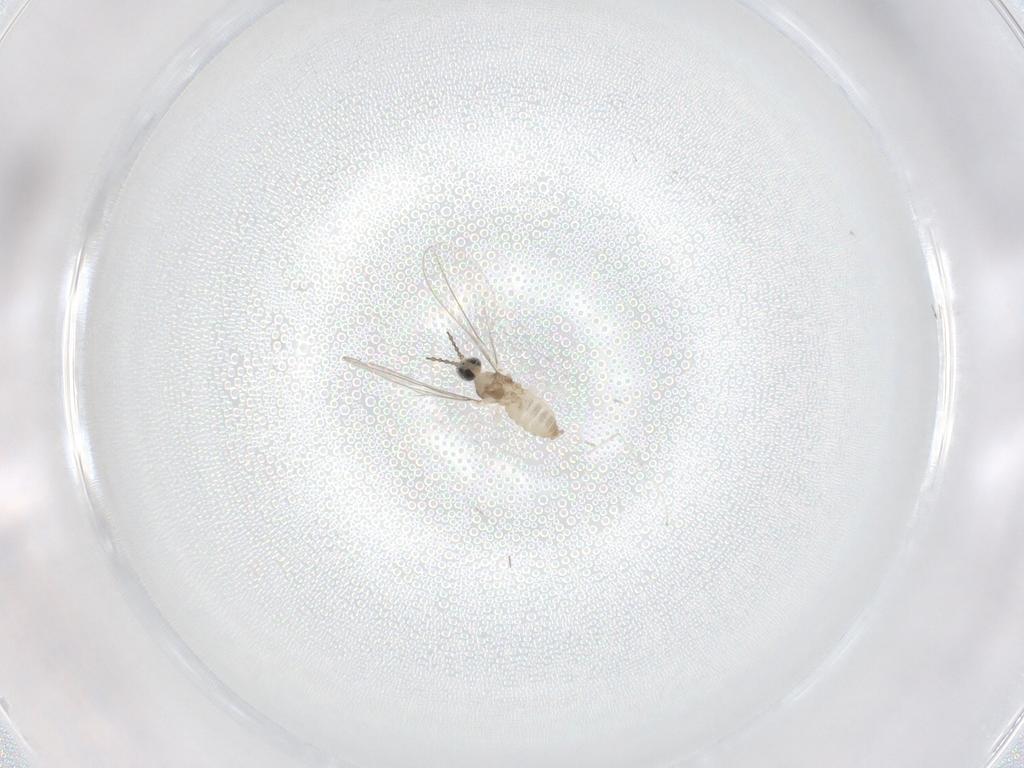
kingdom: Animalia
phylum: Arthropoda
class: Insecta
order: Diptera
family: Cecidomyiidae
